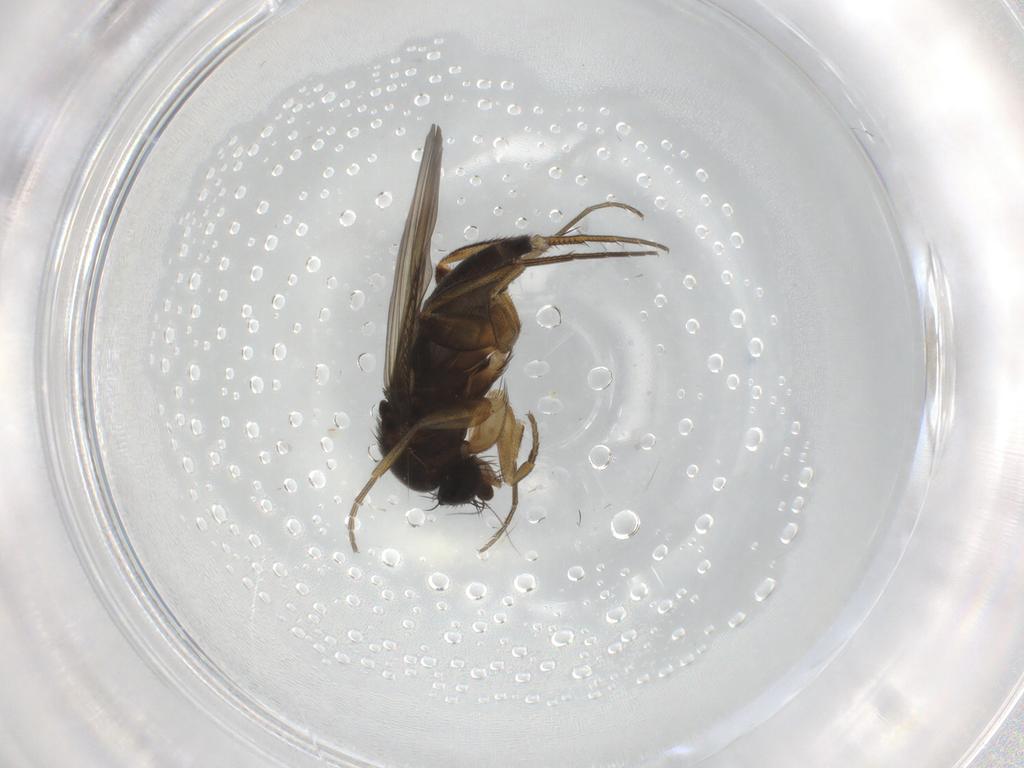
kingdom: Animalia
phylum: Arthropoda
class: Insecta
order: Diptera
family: Phoridae
